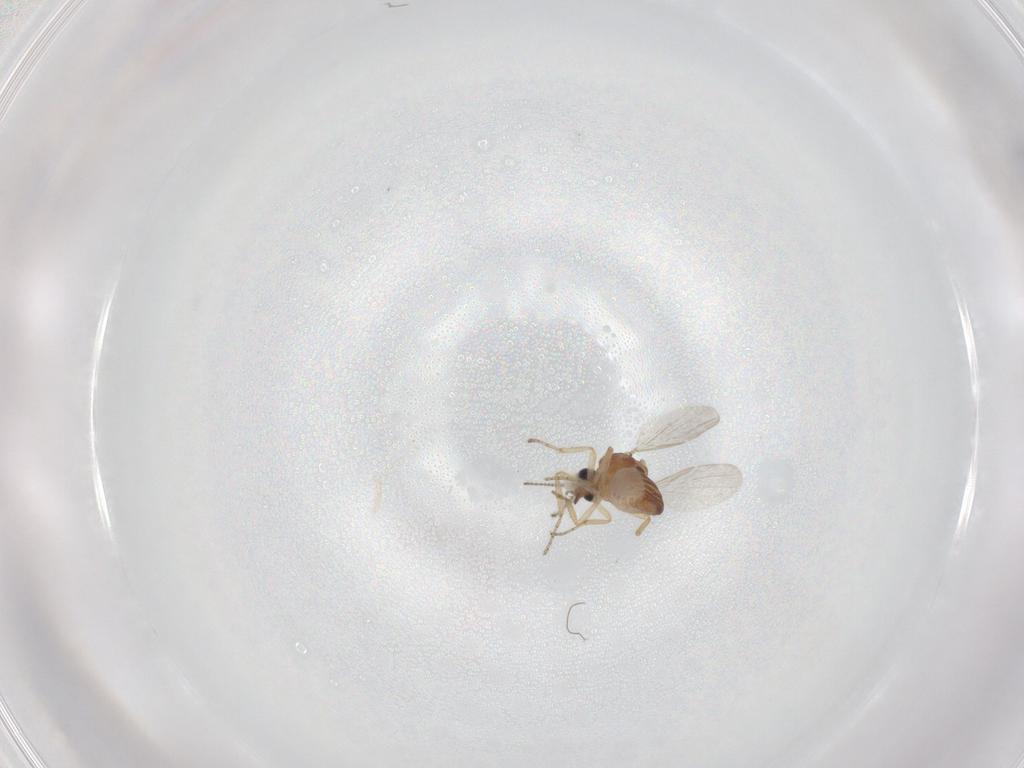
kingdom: Animalia
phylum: Arthropoda
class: Insecta
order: Diptera
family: Ceratopogonidae
